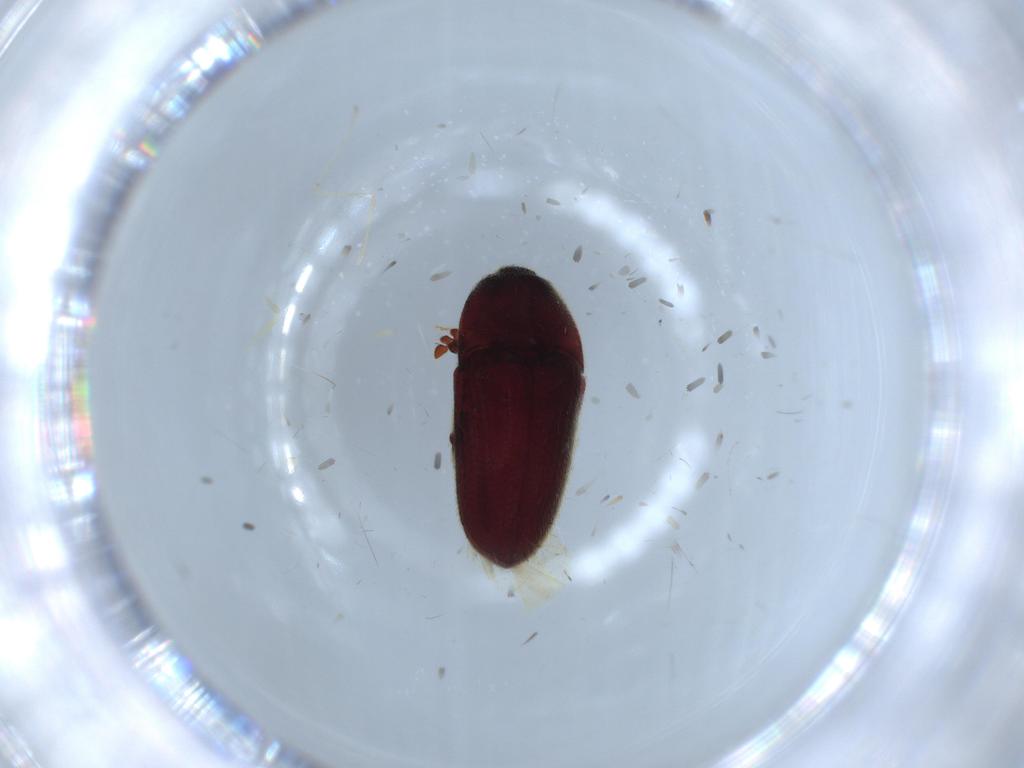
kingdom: Animalia
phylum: Arthropoda
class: Insecta
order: Coleoptera
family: Throscidae
